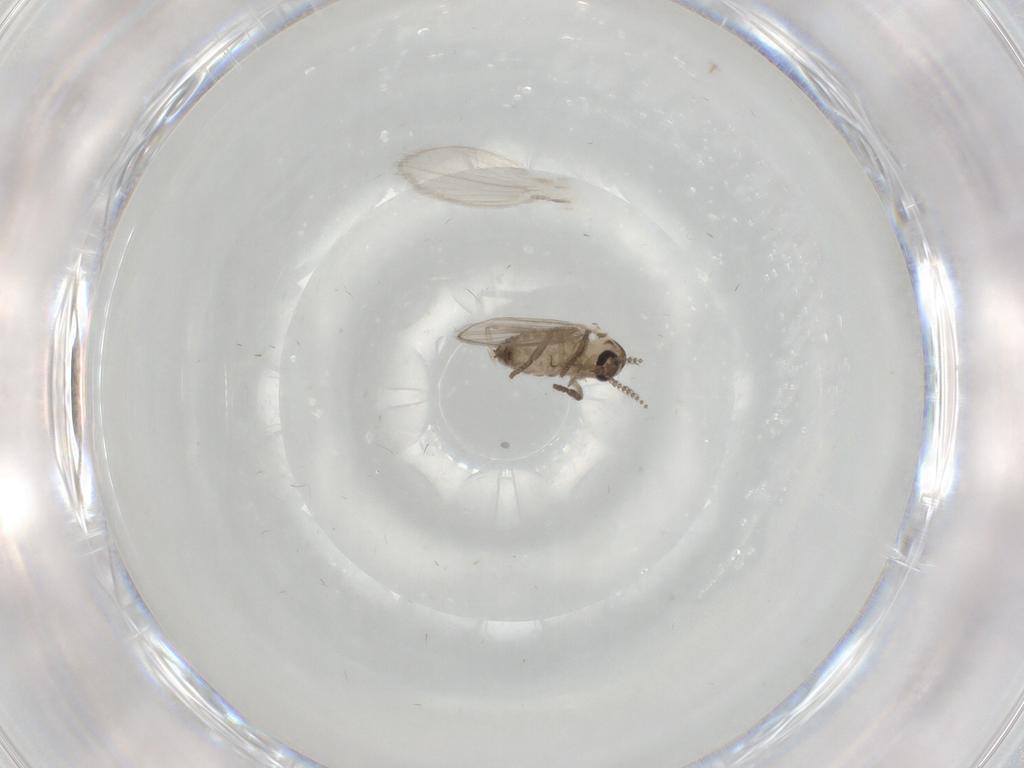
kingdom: Animalia
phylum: Arthropoda
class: Insecta
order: Diptera
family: Psychodidae
